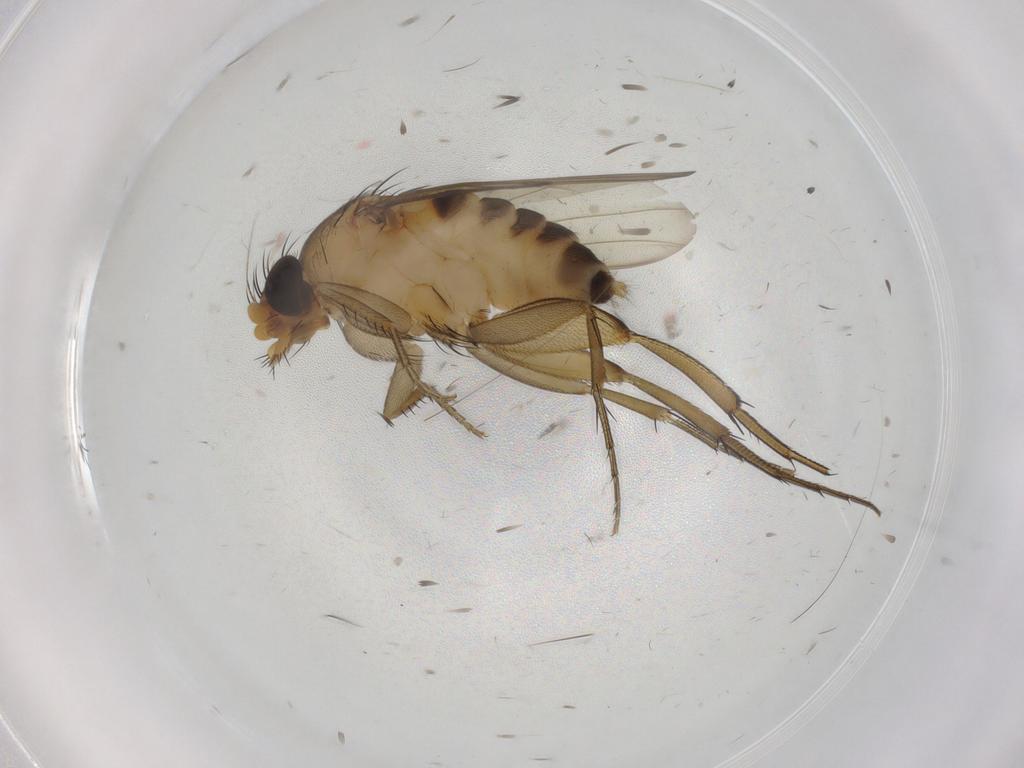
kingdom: Animalia
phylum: Arthropoda
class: Insecta
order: Diptera
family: Phoridae
